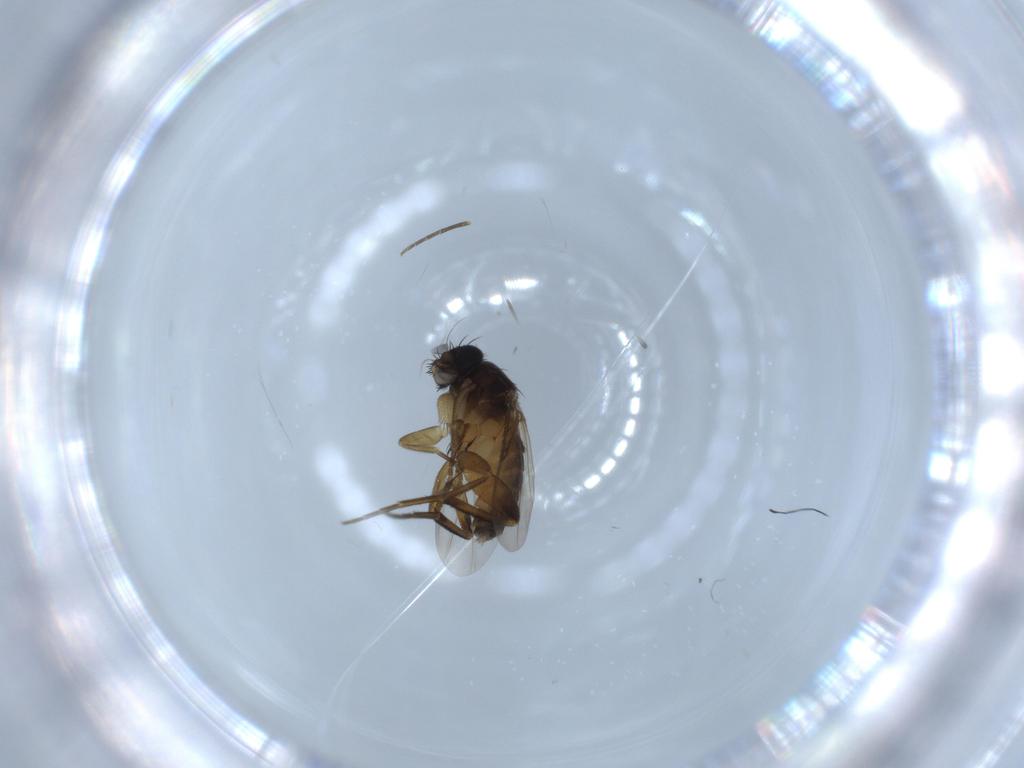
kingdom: Animalia
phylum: Arthropoda
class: Insecta
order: Diptera
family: Phoridae
